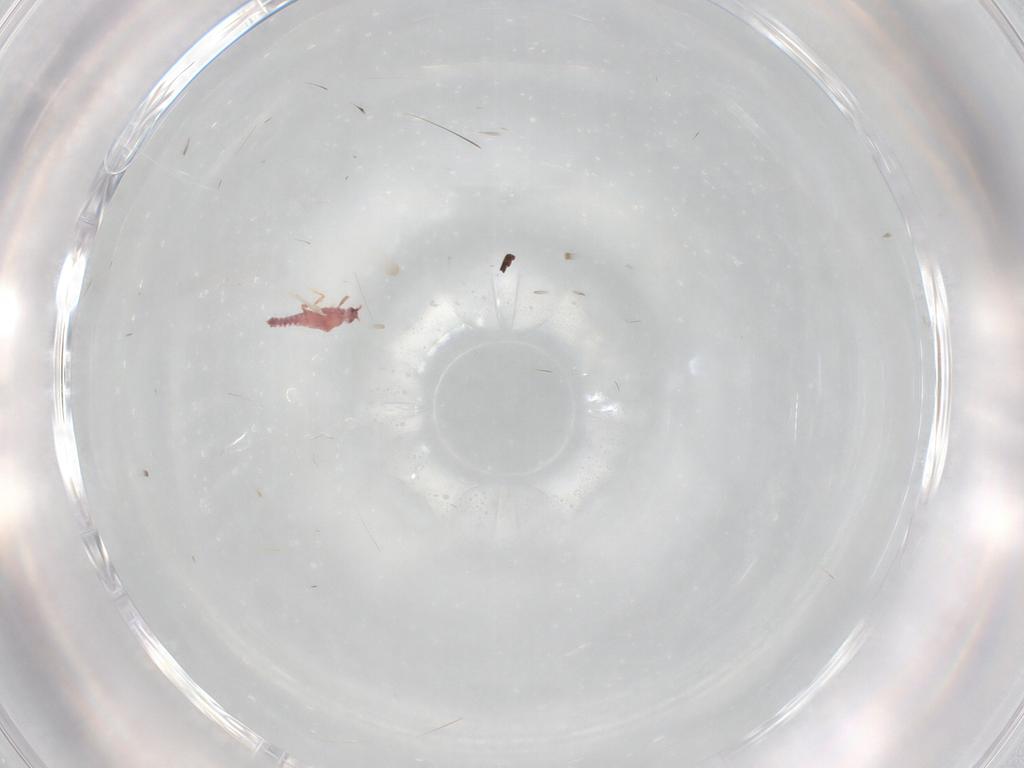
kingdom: Animalia
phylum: Arthropoda
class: Insecta
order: Hemiptera
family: Pseudococcidae
